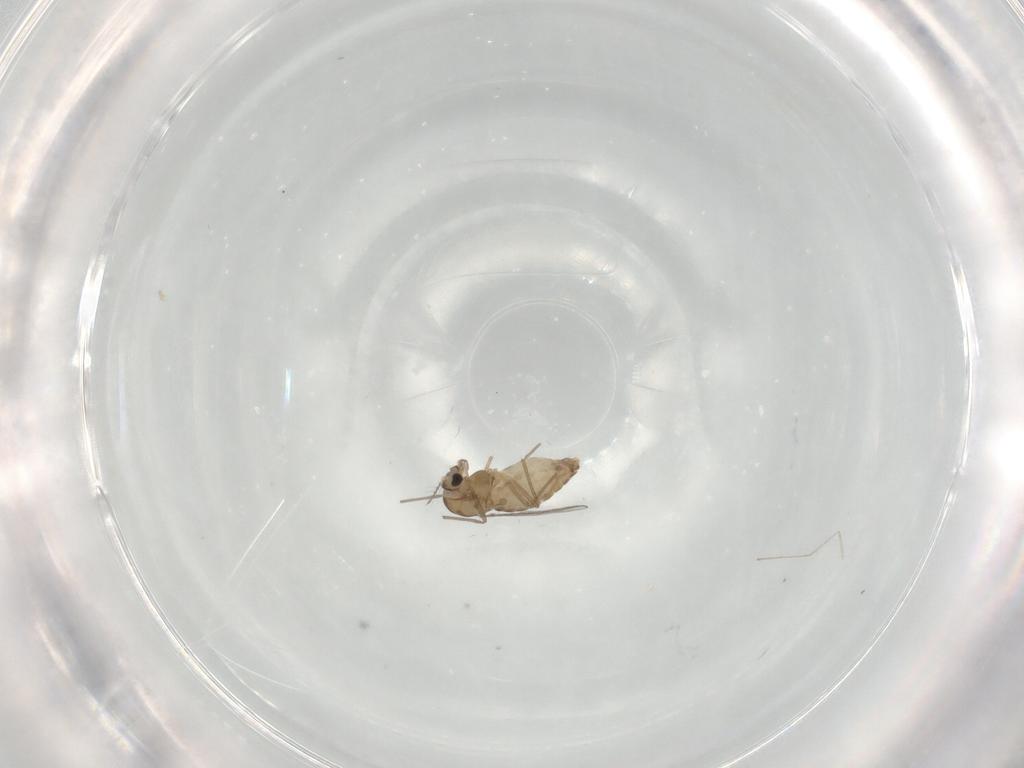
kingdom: Animalia
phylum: Arthropoda
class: Insecta
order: Diptera
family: Chironomidae
